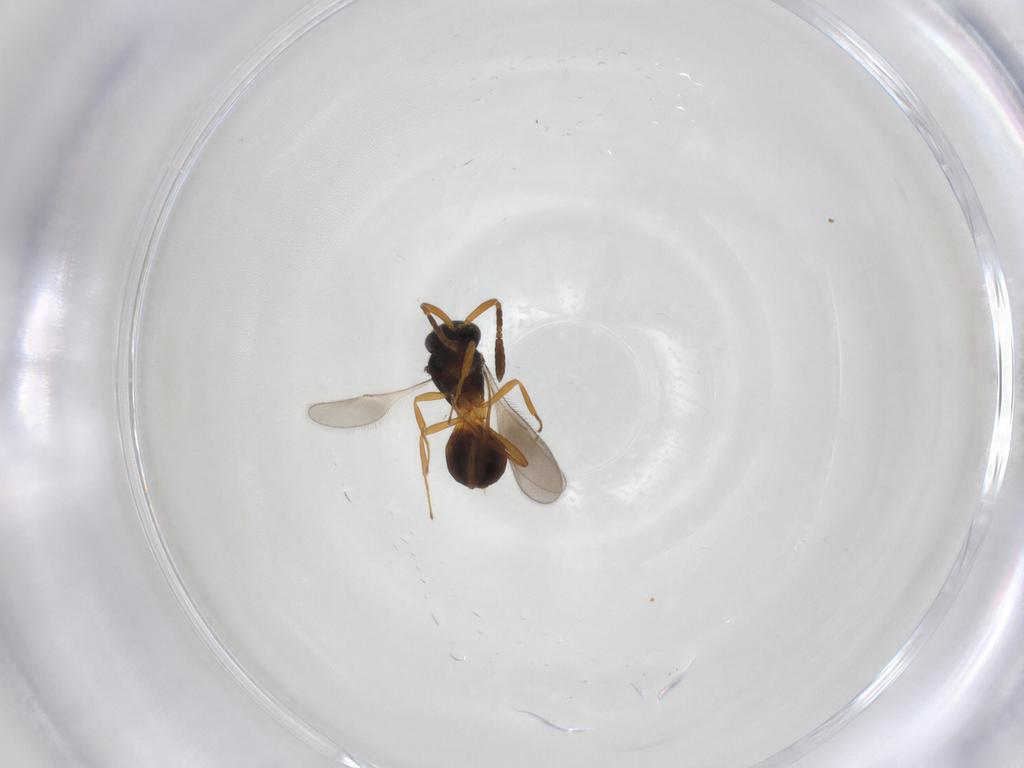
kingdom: Animalia
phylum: Arthropoda
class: Insecta
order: Hymenoptera
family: Scelionidae
